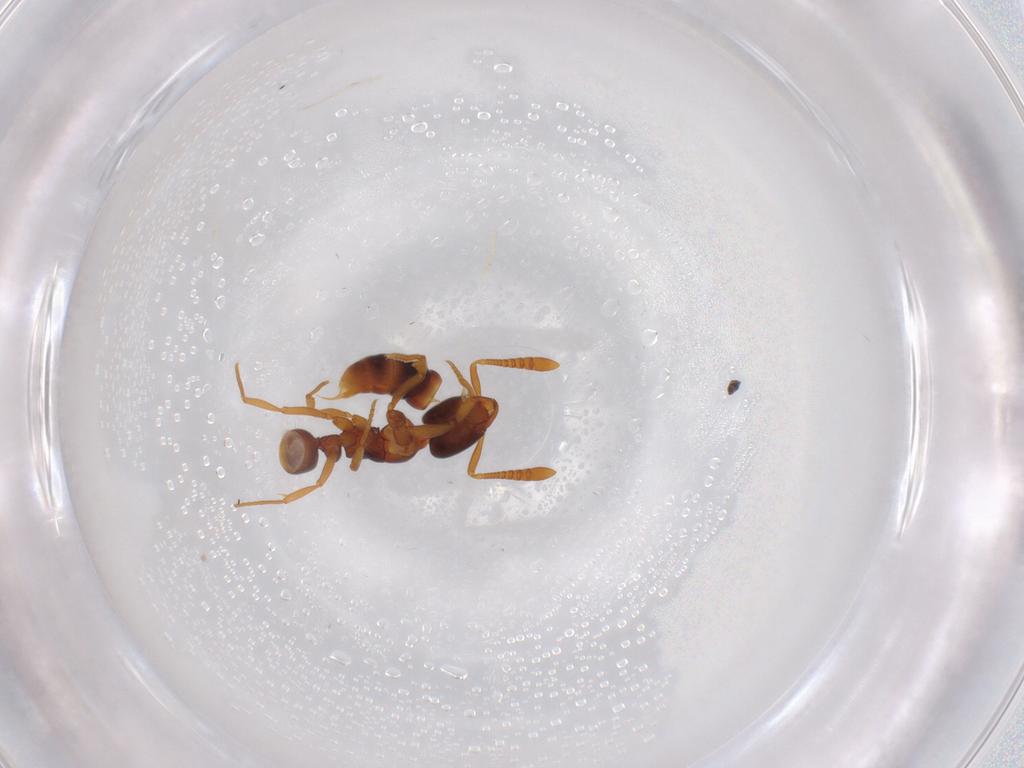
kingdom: Animalia
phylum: Arthropoda
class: Insecta
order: Hymenoptera
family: Formicidae
